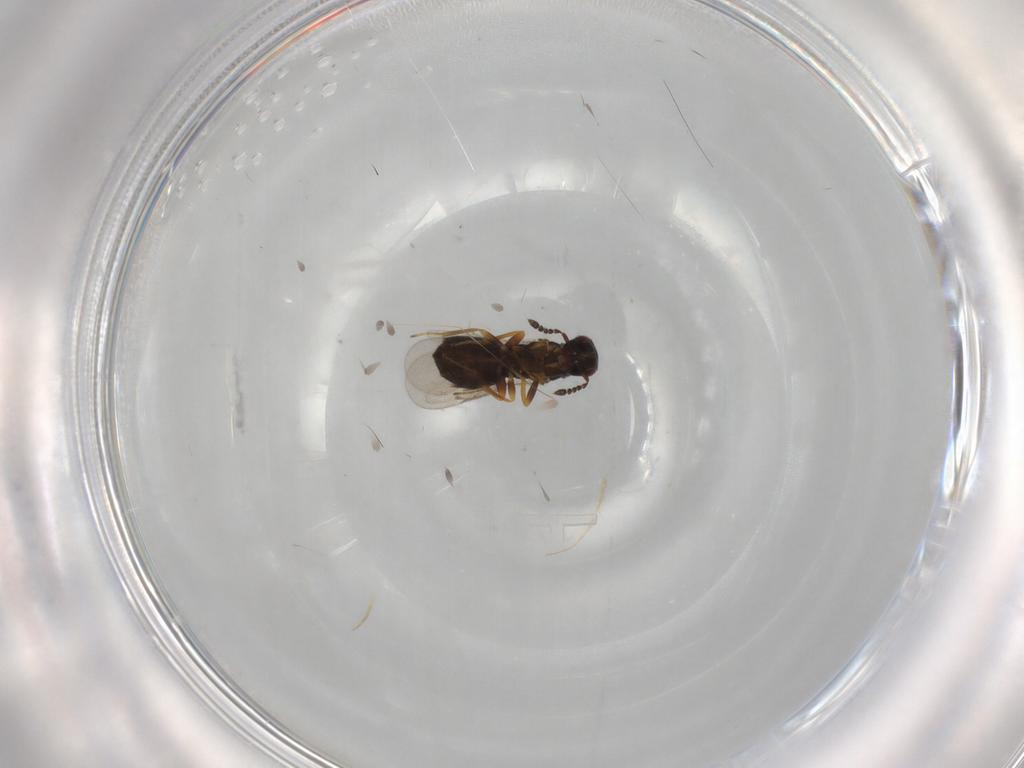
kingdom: Animalia
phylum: Arthropoda
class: Insecta
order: Hymenoptera
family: Eulophidae
